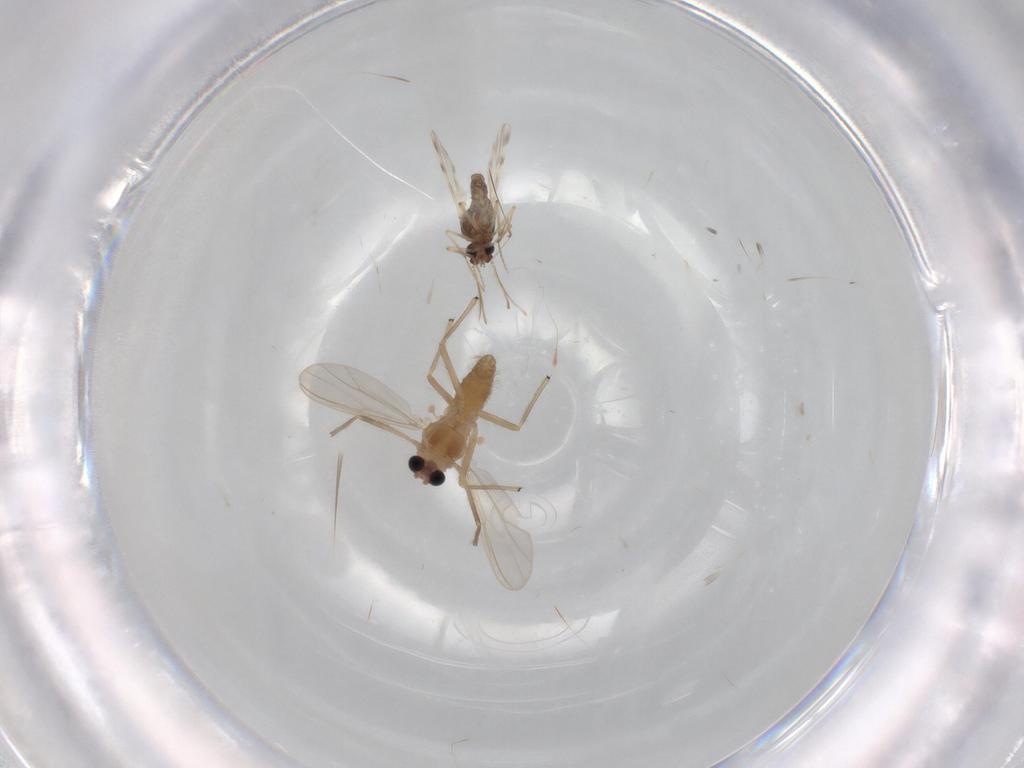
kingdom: Animalia
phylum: Arthropoda
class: Insecta
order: Diptera
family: Chironomidae
